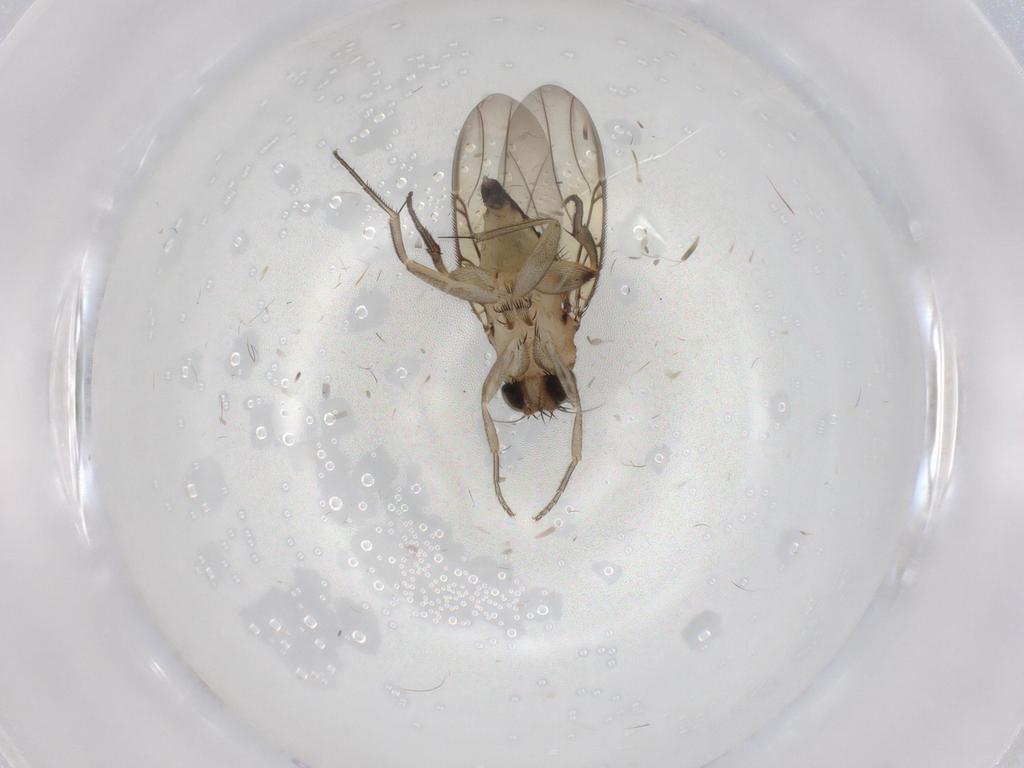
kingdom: Animalia
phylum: Arthropoda
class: Insecta
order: Diptera
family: Phoridae
